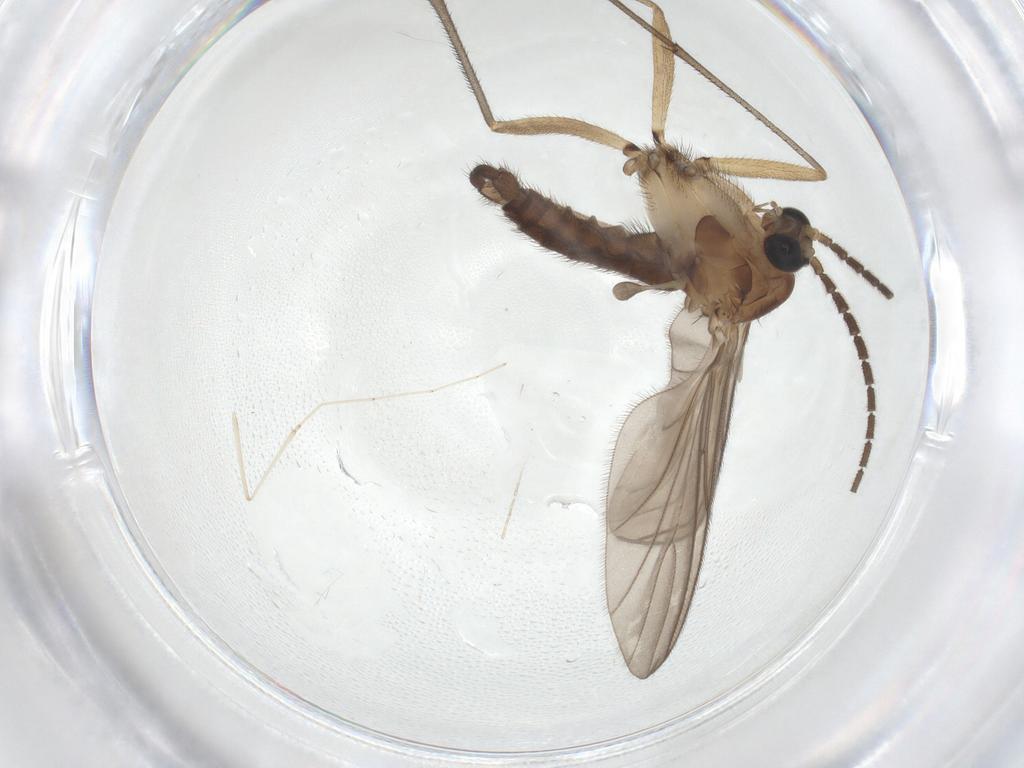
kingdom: Animalia
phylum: Arthropoda
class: Insecta
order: Diptera
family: Cecidomyiidae
